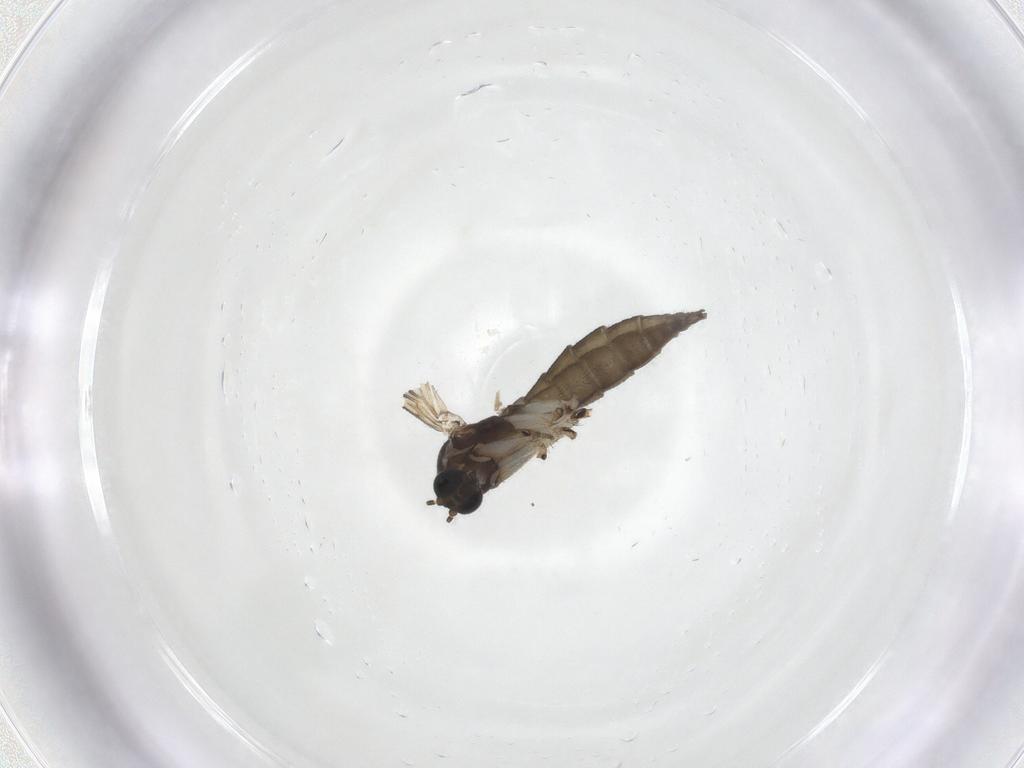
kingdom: Animalia
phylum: Arthropoda
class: Insecta
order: Diptera
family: Sciaridae
